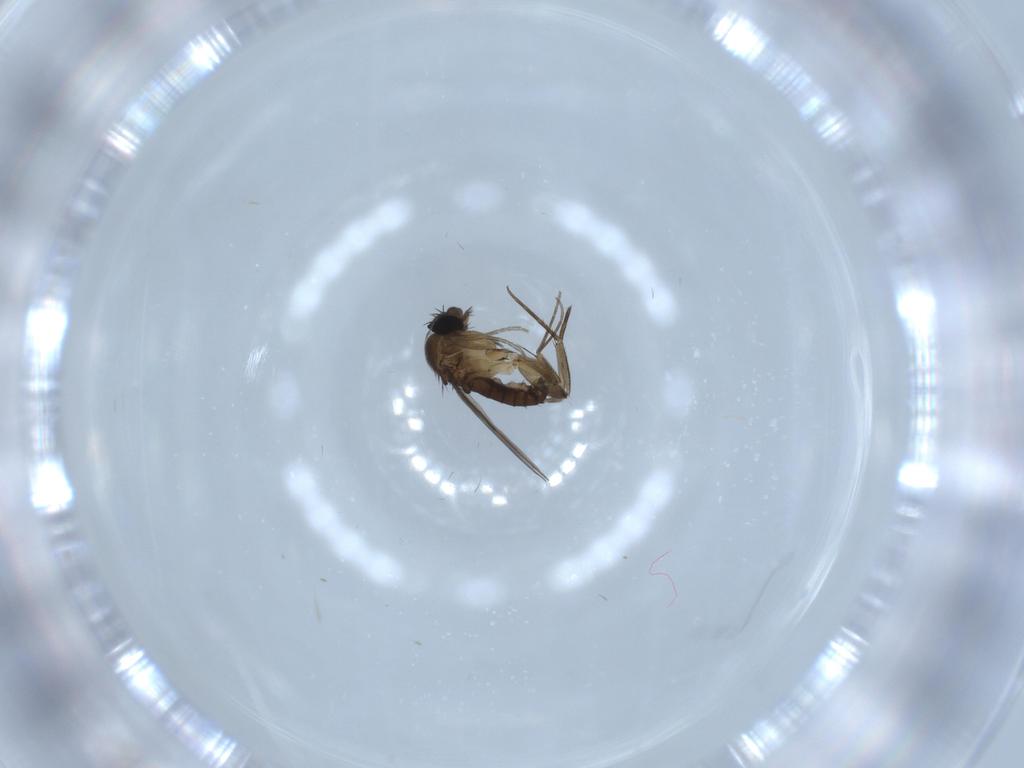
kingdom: Animalia
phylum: Arthropoda
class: Insecta
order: Diptera
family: Phoridae
